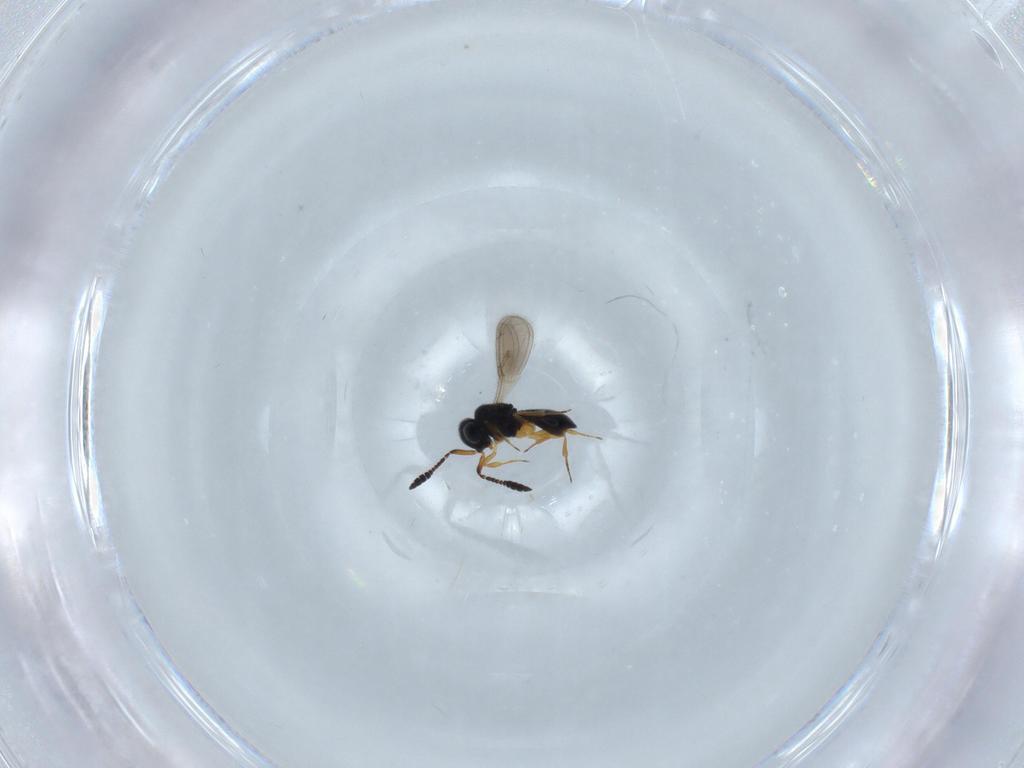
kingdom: Animalia
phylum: Arthropoda
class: Insecta
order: Hymenoptera
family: Scelionidae
